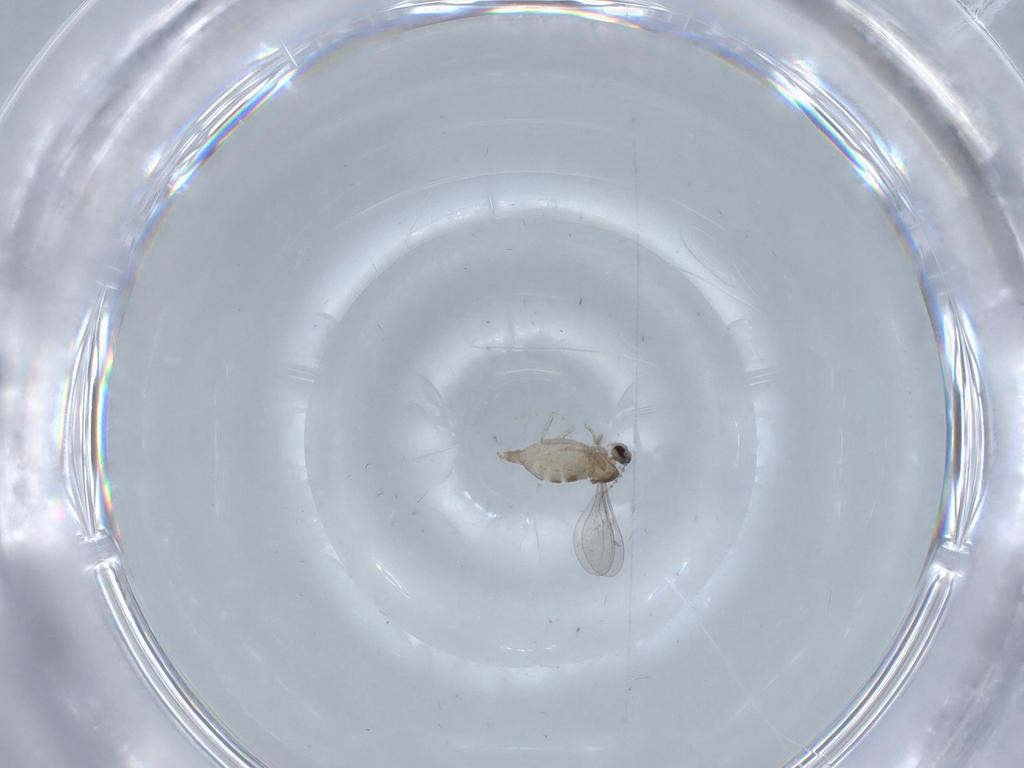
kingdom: Animalia
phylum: Arthropoda
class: Insecta
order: Diptera
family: Cecidomyiidae
